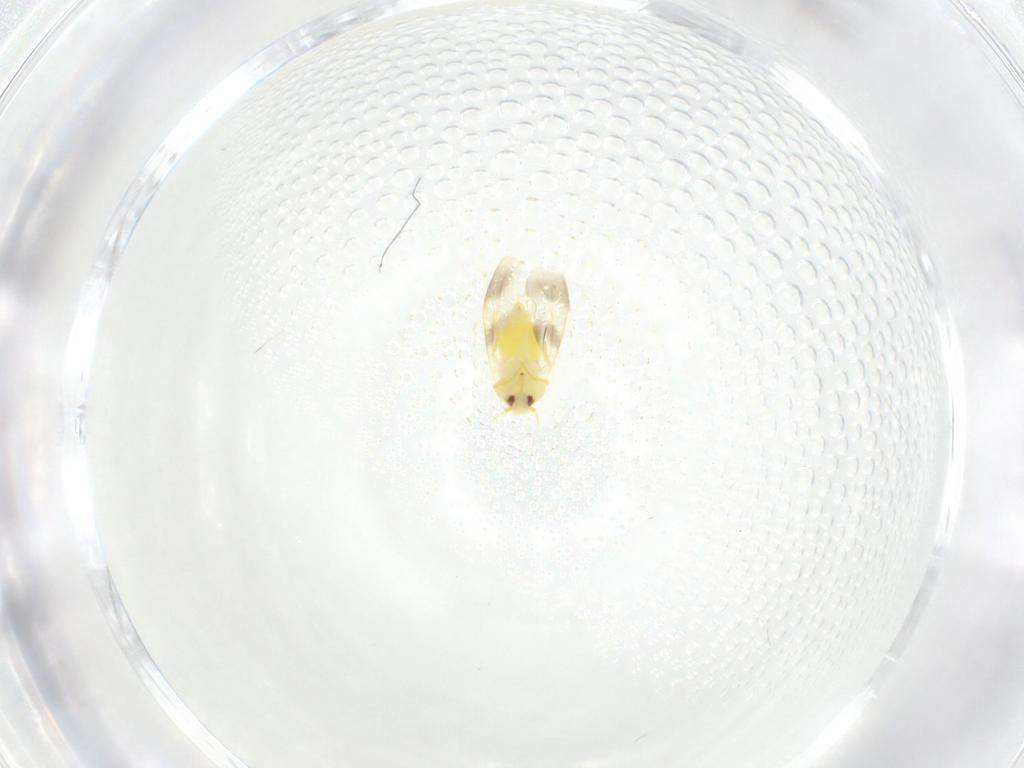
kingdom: Animalia
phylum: Arthropoda
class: Insecta
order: Hemiptera
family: Aleyrodidae
